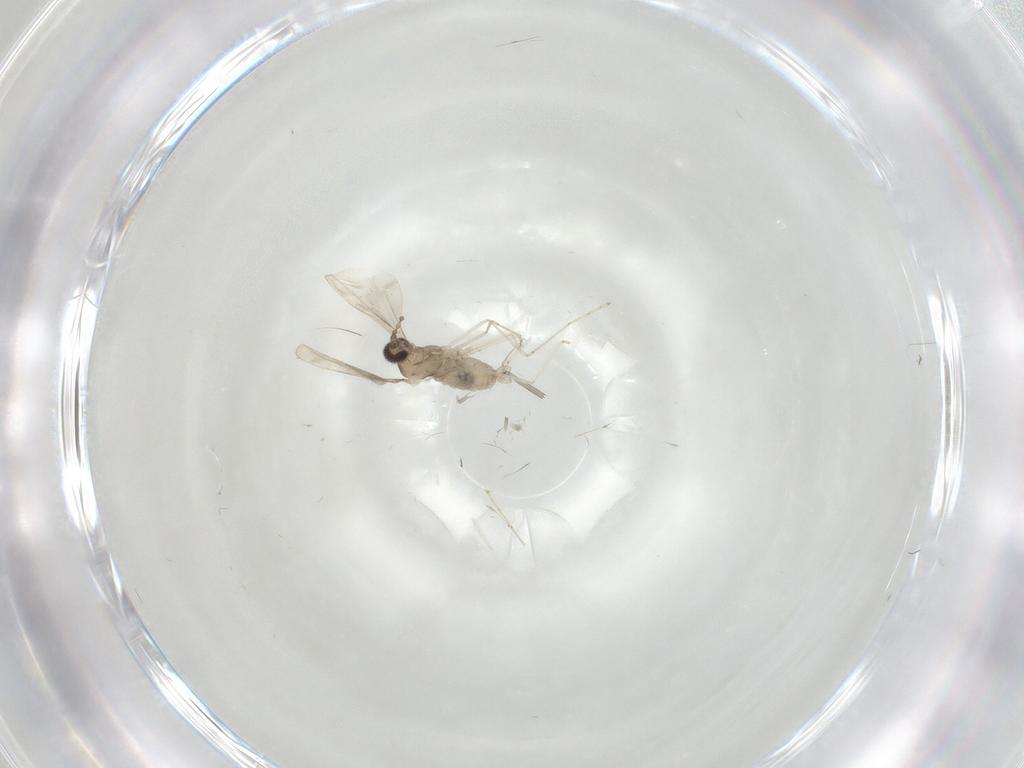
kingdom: Animalia
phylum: Arthropoda
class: Insecta
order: Diptera
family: Cecidomyiidae
